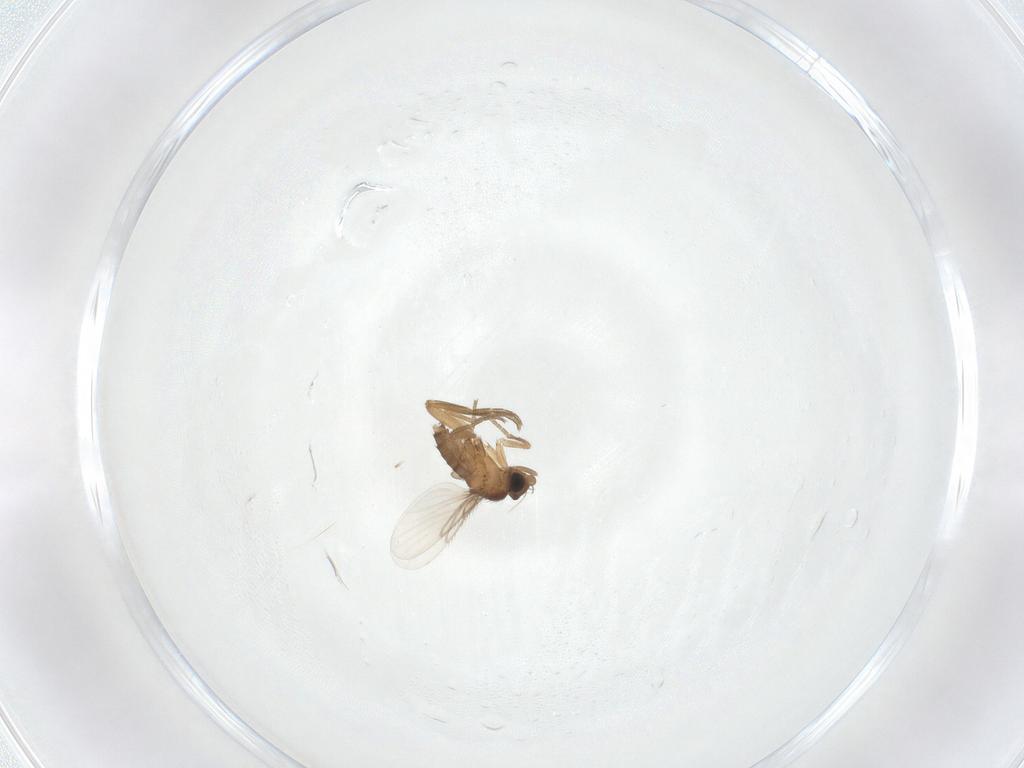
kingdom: Animalia
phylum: Arthropoda
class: Insecta
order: Diptera
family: Phoridae
